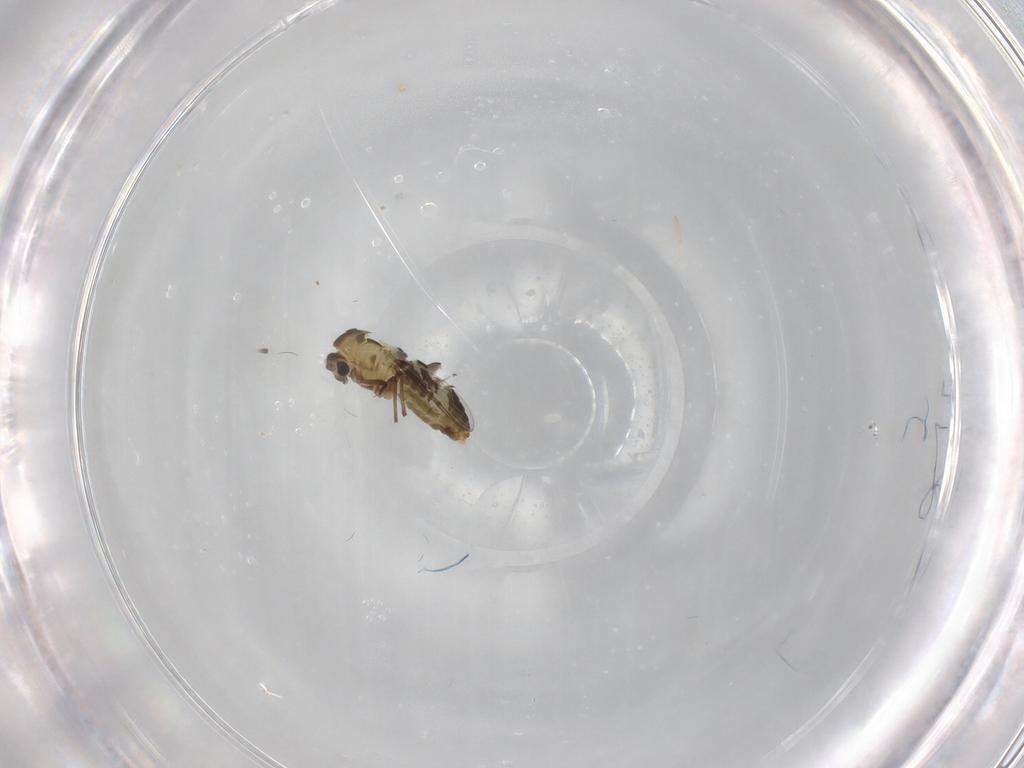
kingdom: Animalia
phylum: Arthropoda
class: Insecta
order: Diptera
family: Chironomidae
